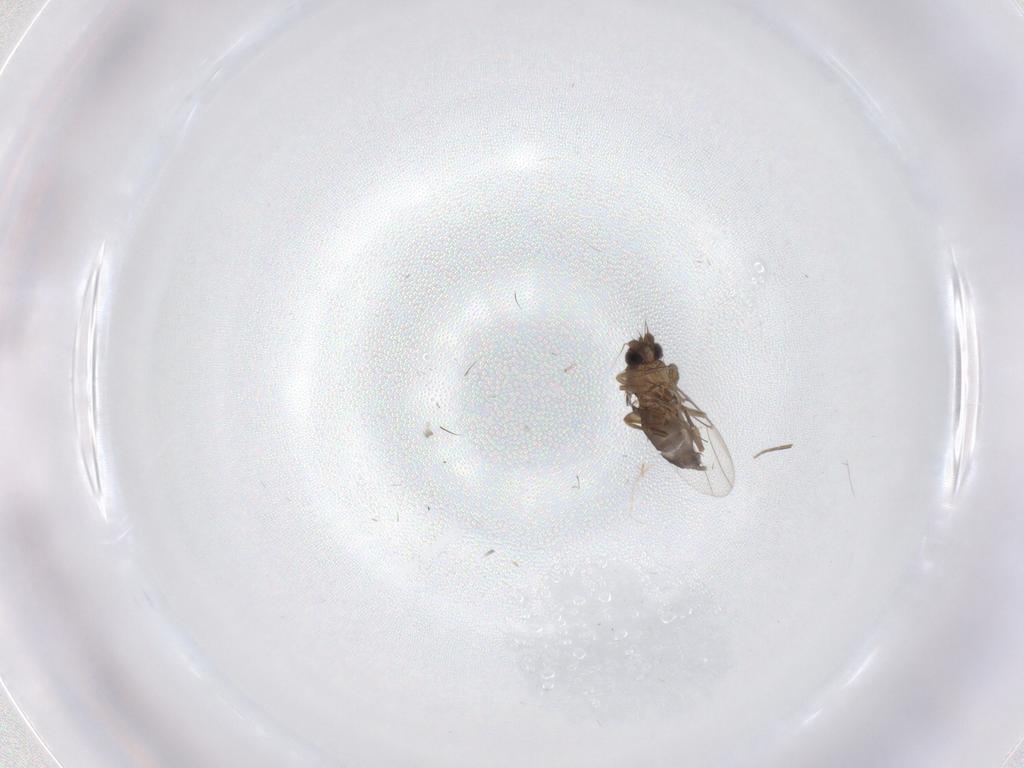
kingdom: Animalia
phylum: Arthropoda
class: Insecta
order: Diptera
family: Phoridae
